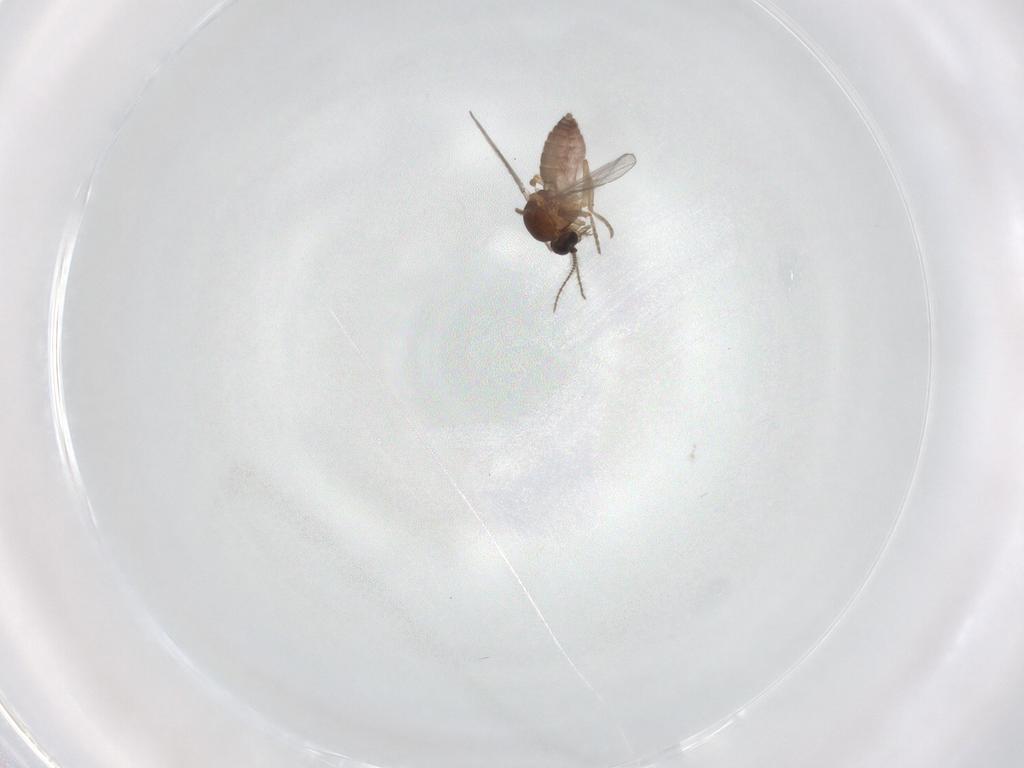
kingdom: Animalia
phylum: Arthropoda
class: Insecta
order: Diptera
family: Ceratopogonidae
